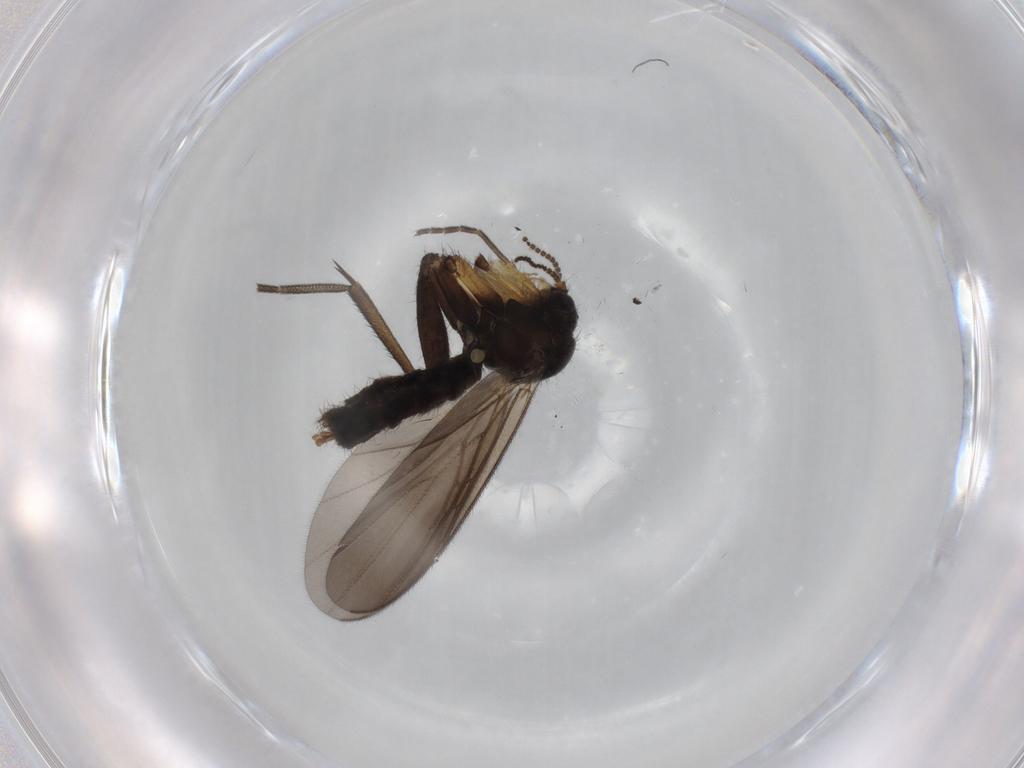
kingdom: Animalia
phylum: Arthropoda
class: Insecta
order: Diptera
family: Mycetophilidae
